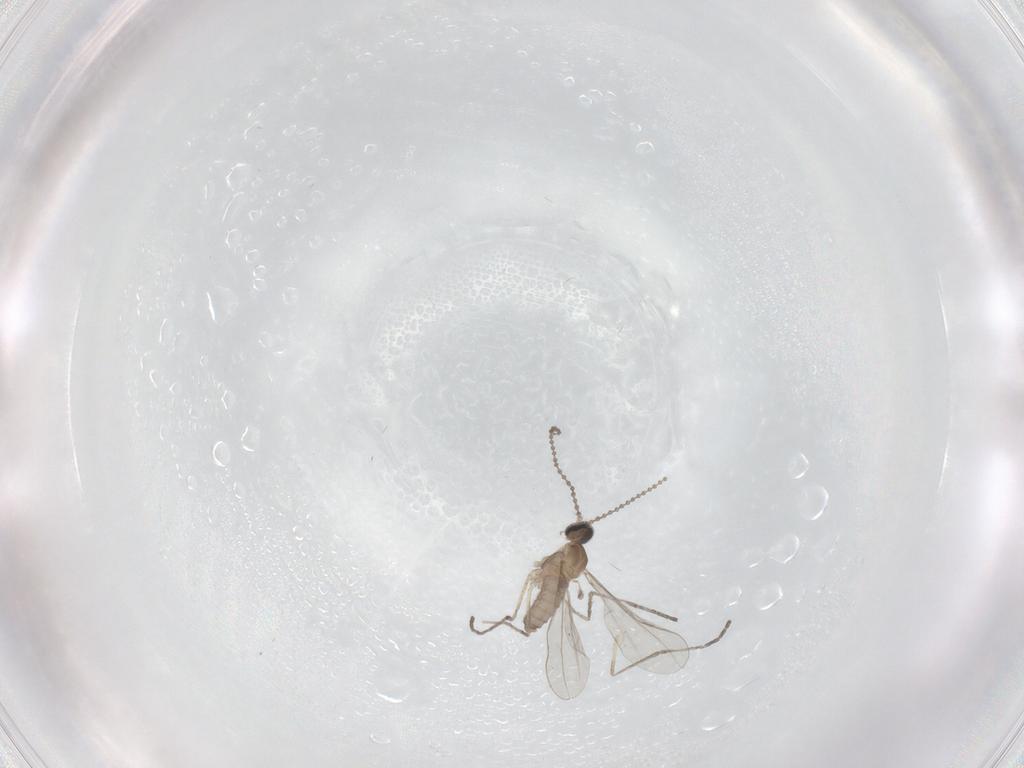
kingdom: Animalia
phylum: Arthropoda
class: Insecta
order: Diptera
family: Cecidomyiidae
